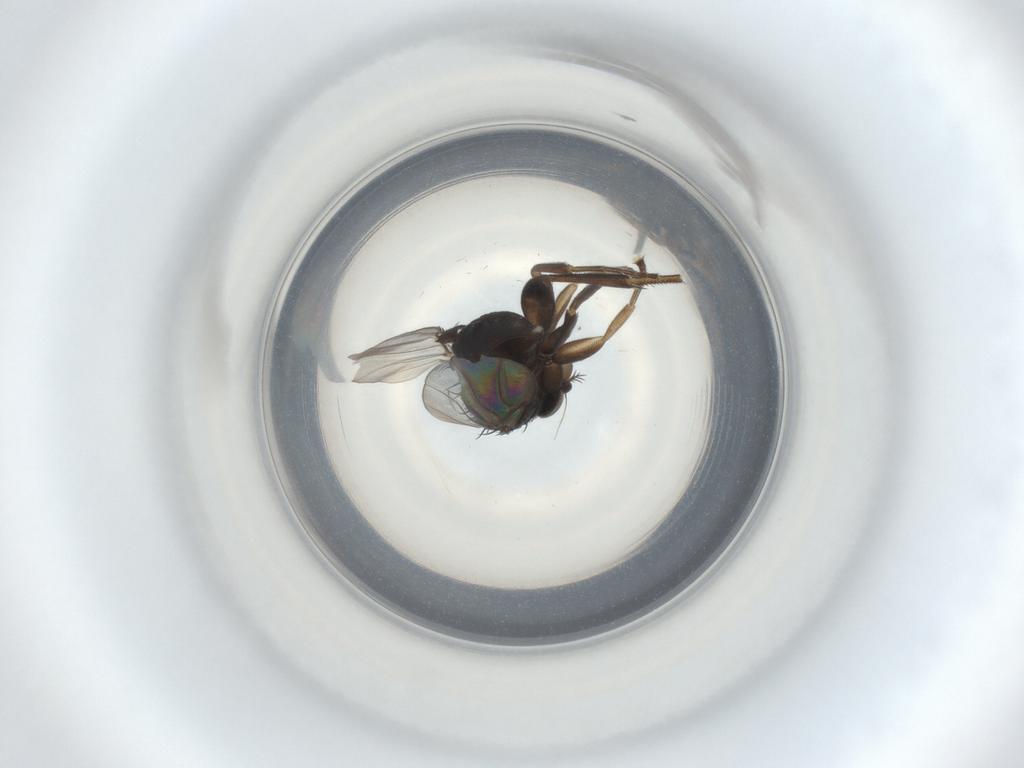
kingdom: Animalia
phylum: Arthropoda
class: Insecta
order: Diptera
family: Phoridae
